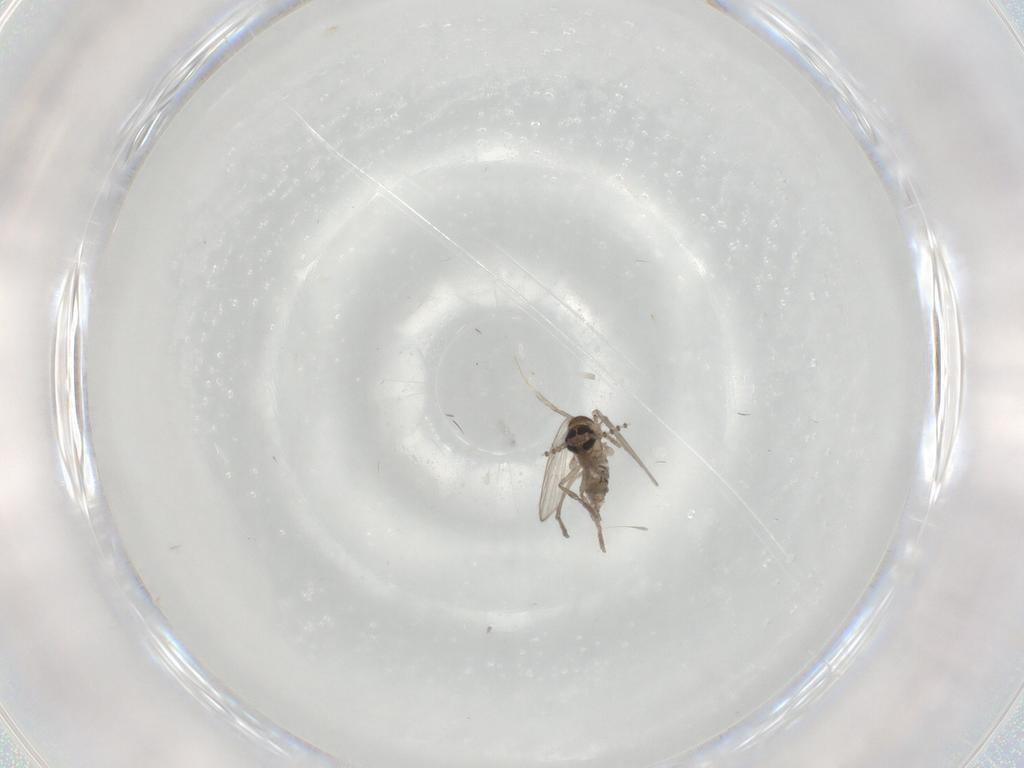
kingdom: Animalia
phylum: Arthropoda
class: Insecta
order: Diptera
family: Psychodidae
